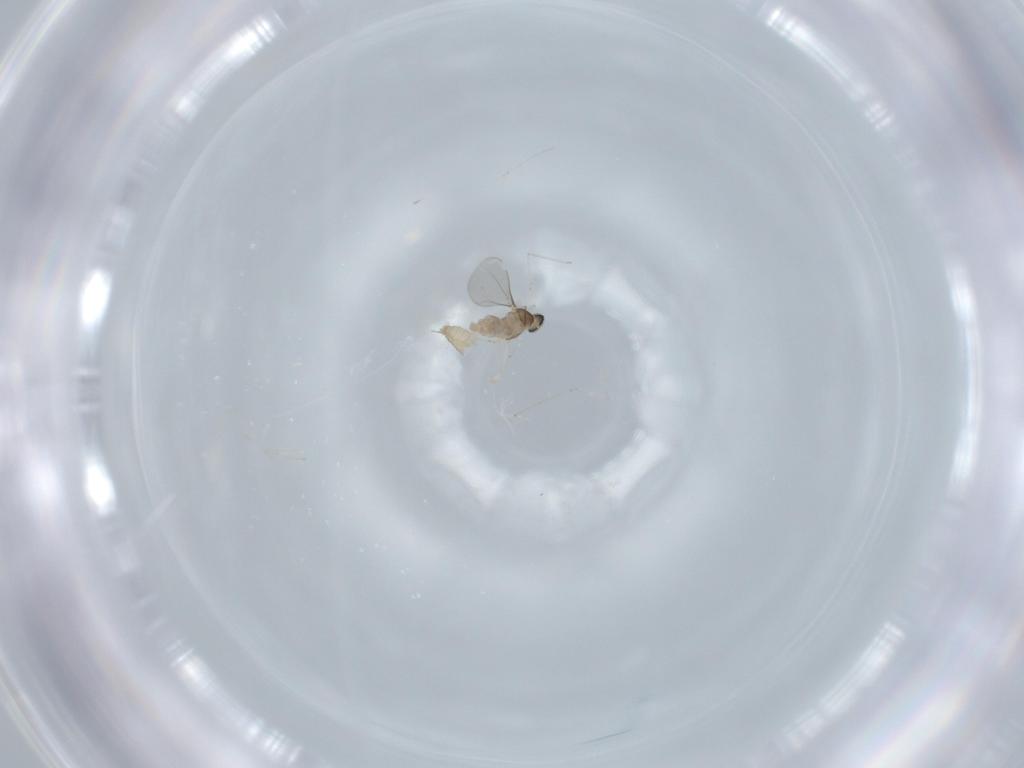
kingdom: Animalia
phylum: Arthropoda
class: Insecta
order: Diptera
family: Cecidomyiidae
